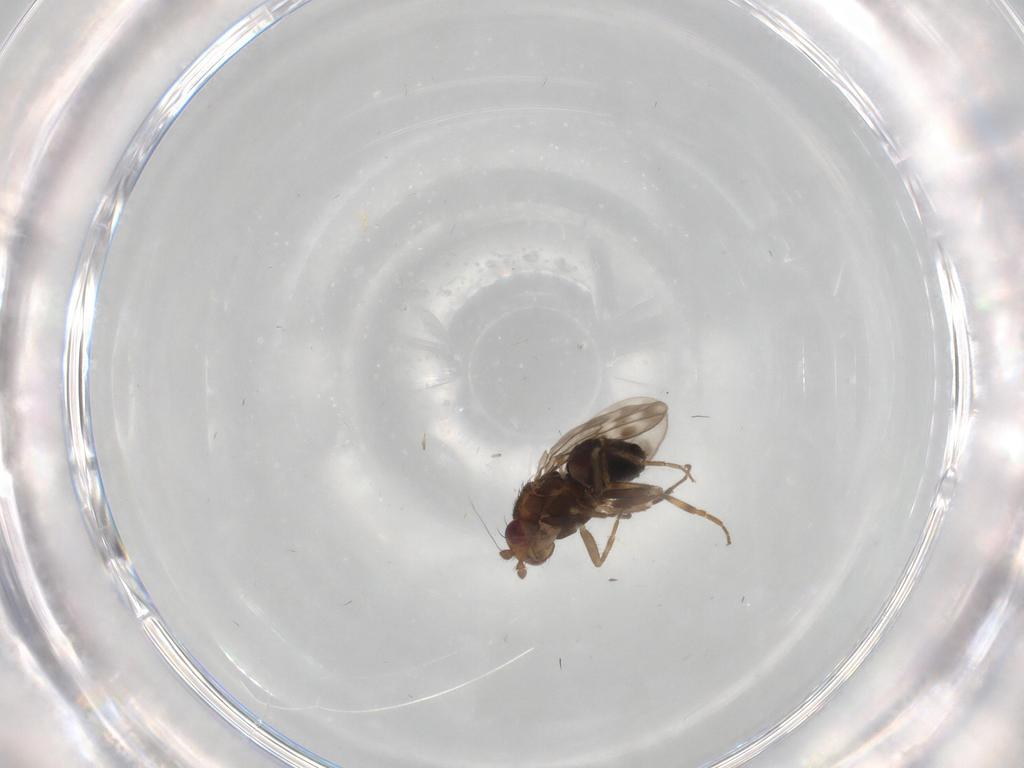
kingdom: Animalia
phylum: Arthropoda
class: Insecta
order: Diptera
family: Sphaeroceridae
